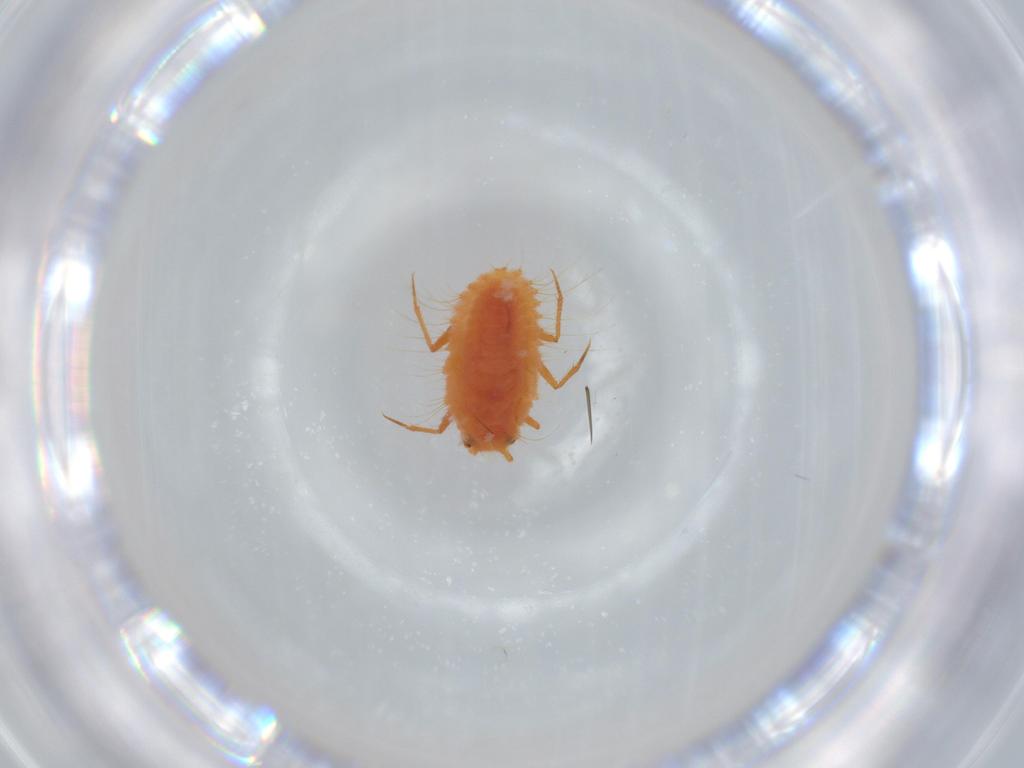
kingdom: Animalia
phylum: Arthropoda
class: Insecta
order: Hemiptera
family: Coccoidea_incertae_sedis
